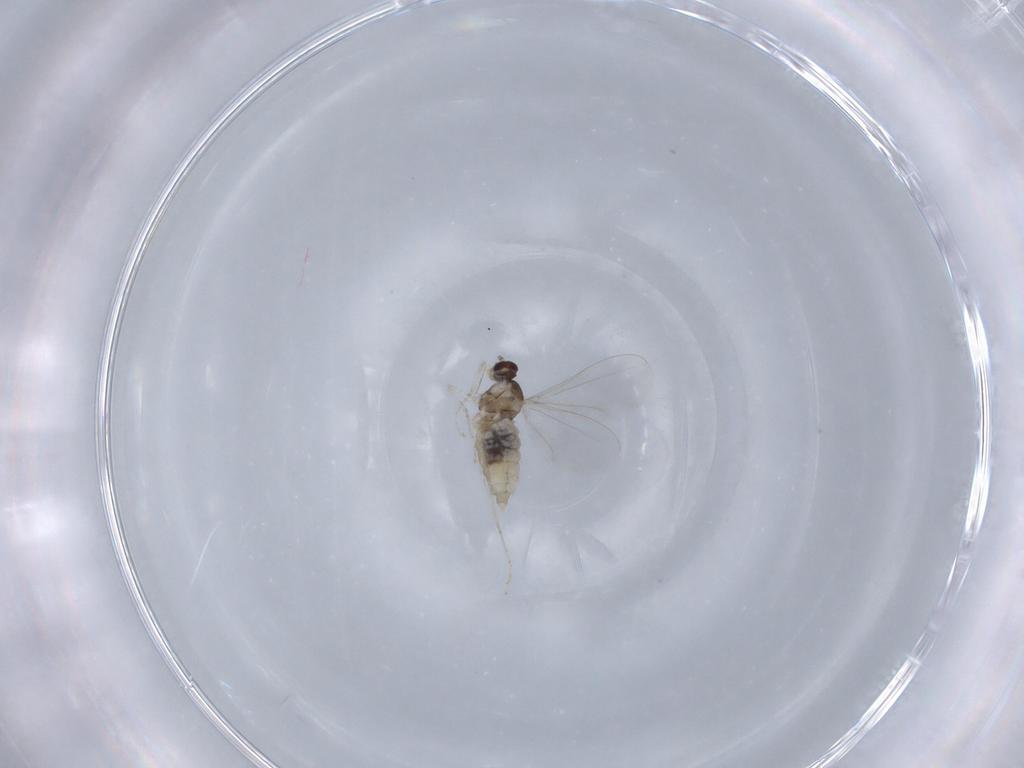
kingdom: Animalia
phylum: Arthropoda
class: Insecta
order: Diptera
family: Cecidomyiidae
